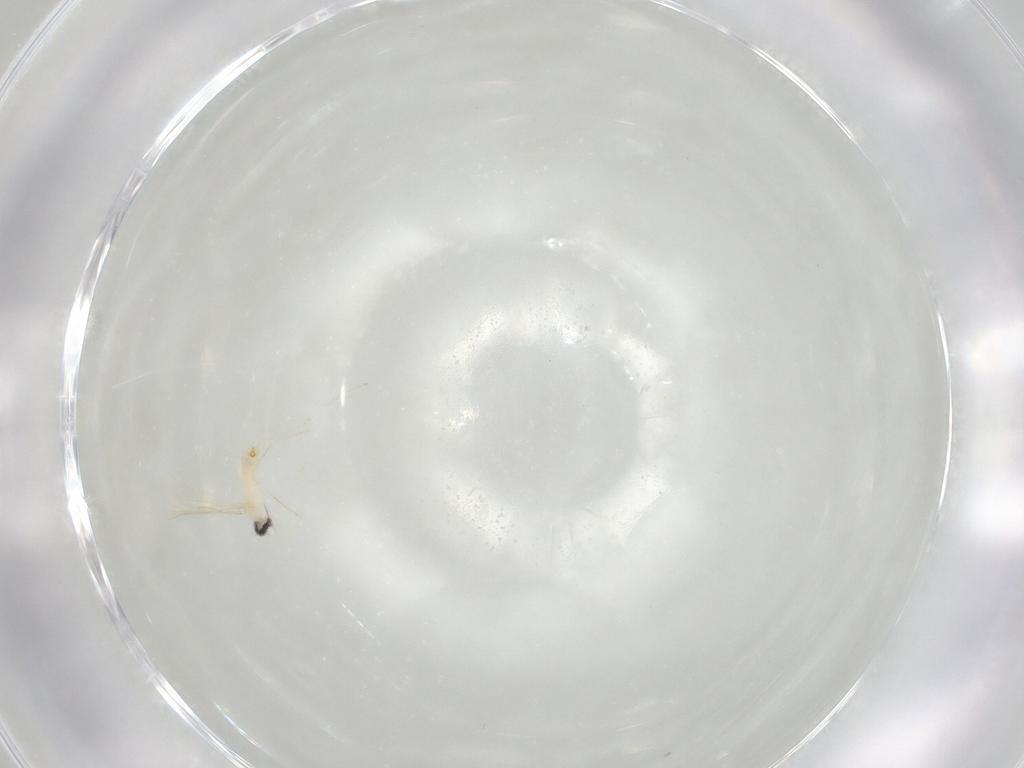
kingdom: Animalia
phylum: Arthropoda
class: Insecta
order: Diptera
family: Cecidomyiidae
